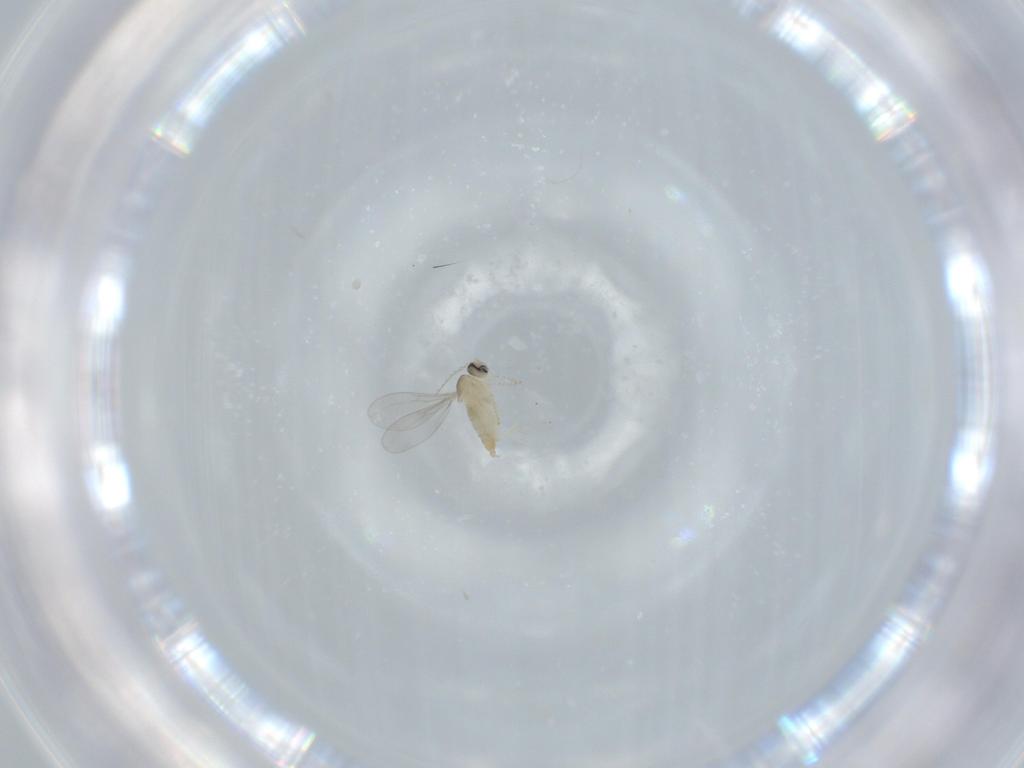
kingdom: Animalia
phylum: Arthropoda
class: Insecta
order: Diptera
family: Cecidomyiidae
